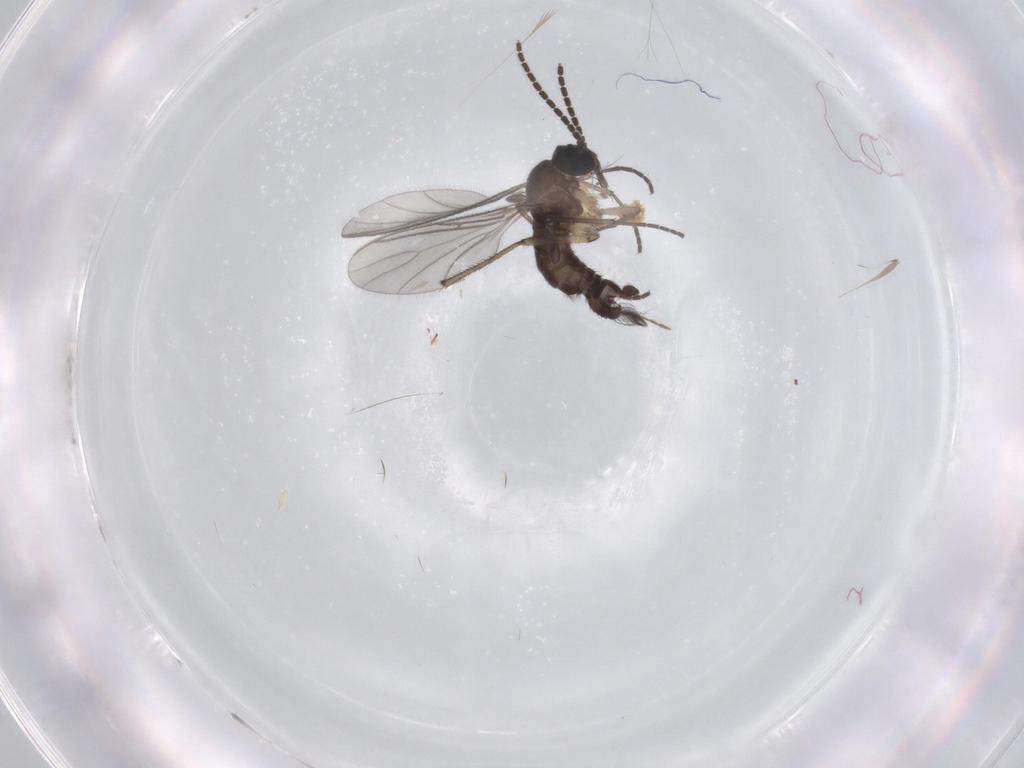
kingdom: Animalia
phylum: Arthropoda
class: Insecta
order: Diptera
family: Sciaridae
